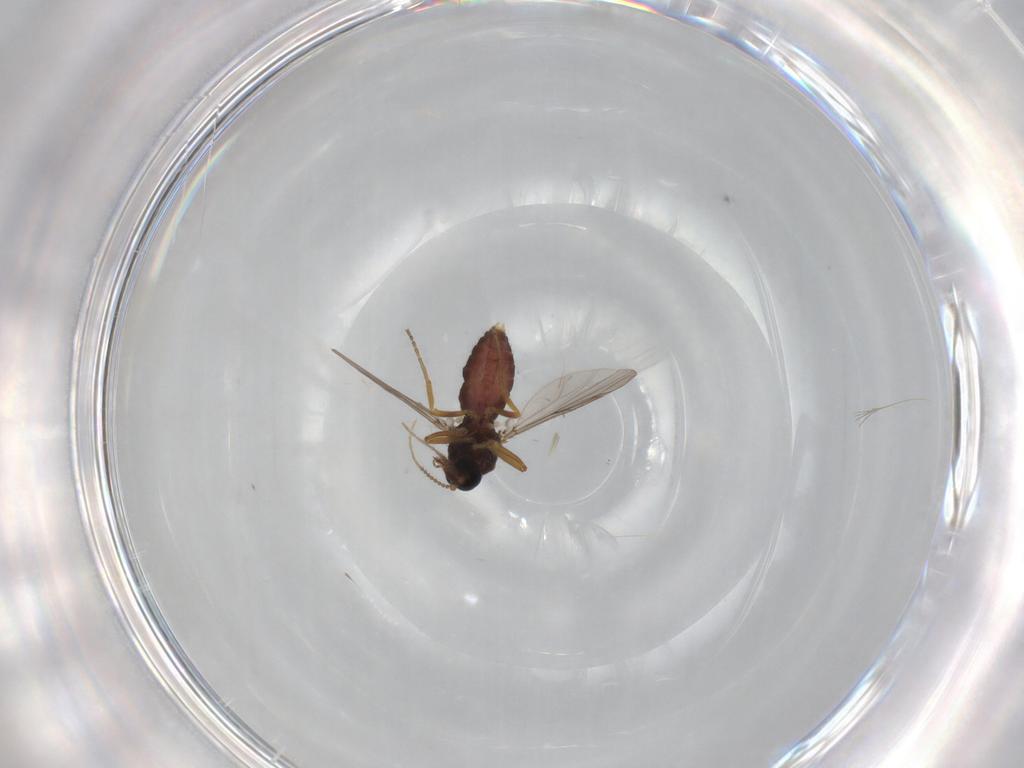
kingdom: Animalia
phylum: Arthropoda
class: Insecta
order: Diptera
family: Ceratopogonidae
